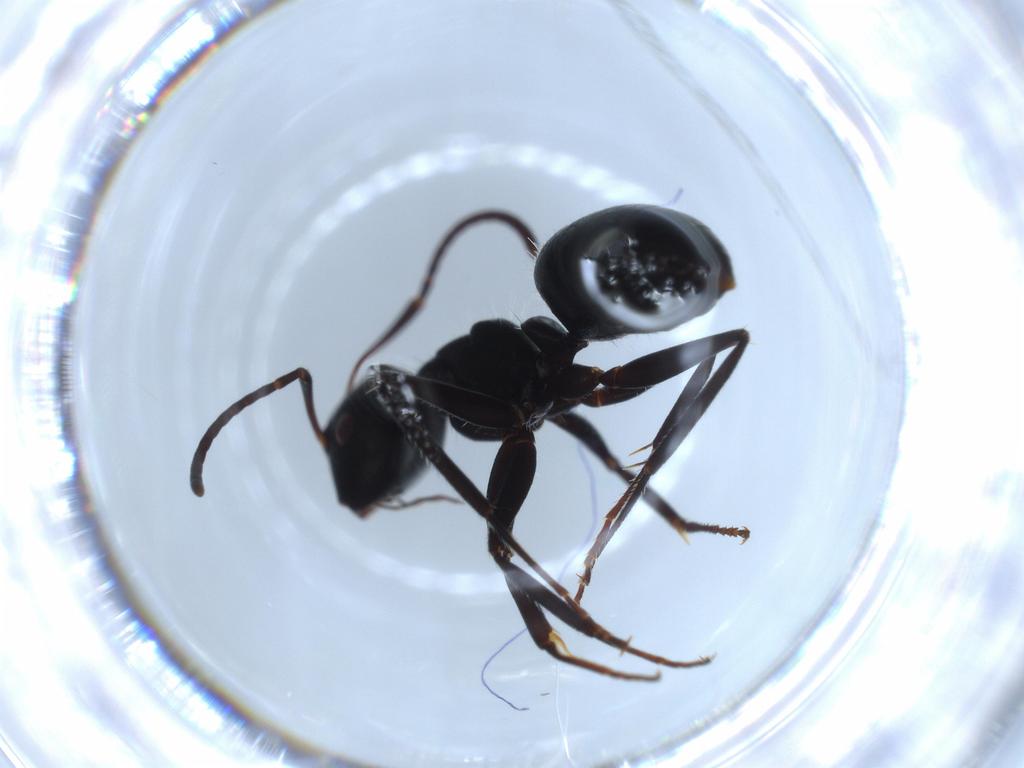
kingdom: Animalia
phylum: Arthropoda
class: Insecta
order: Hymenoptera
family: Formicidae
